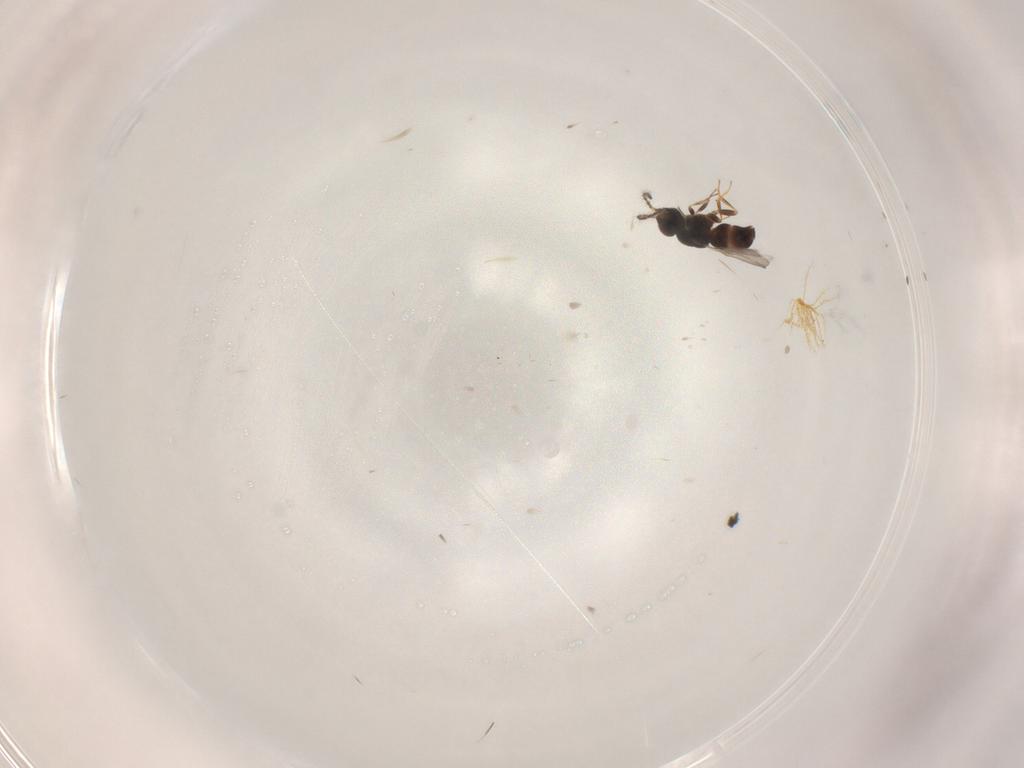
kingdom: Animalia
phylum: Arthropoda
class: Insecta
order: Hymenoptera
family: Ceraphronidae
